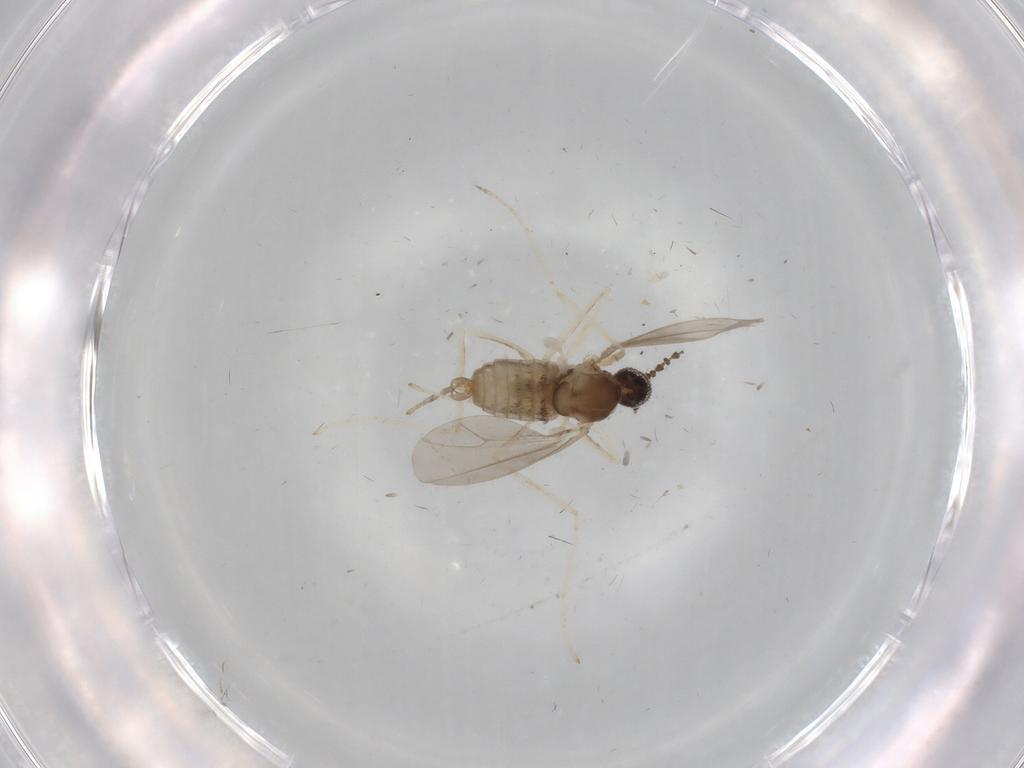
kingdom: Animalia
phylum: Arthropoda
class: Insecta
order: Diptera
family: Cecidomyiidae
